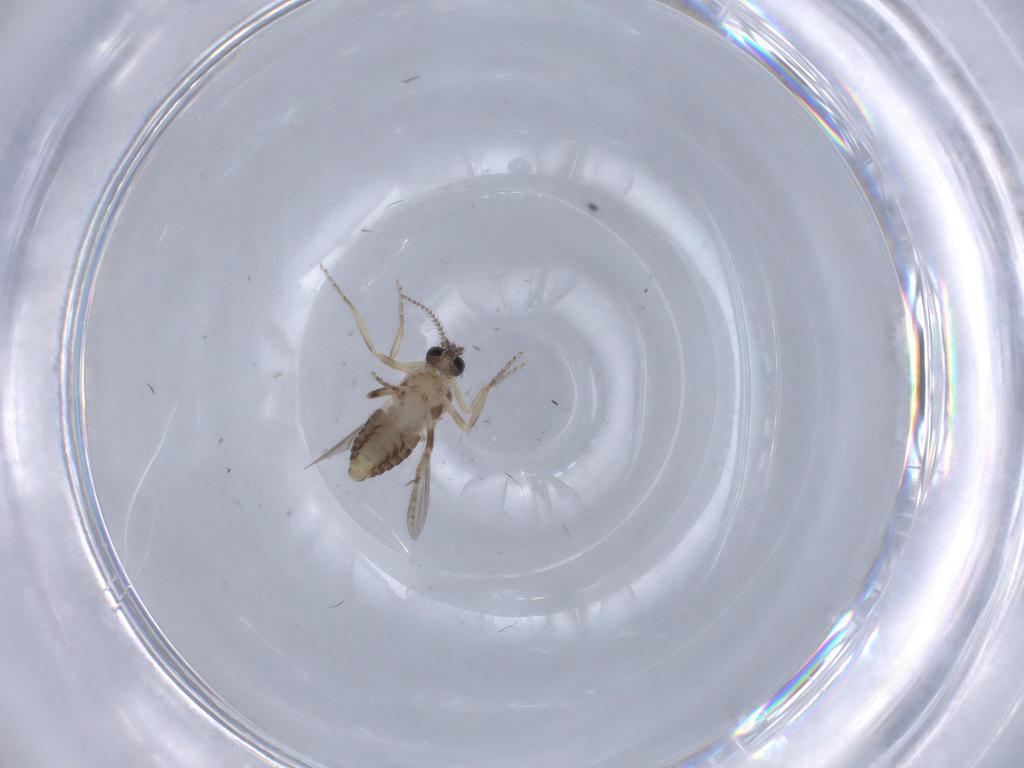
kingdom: Animalia
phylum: Arthropoda
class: Insecta
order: Diptera
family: Ceratopogonidae
